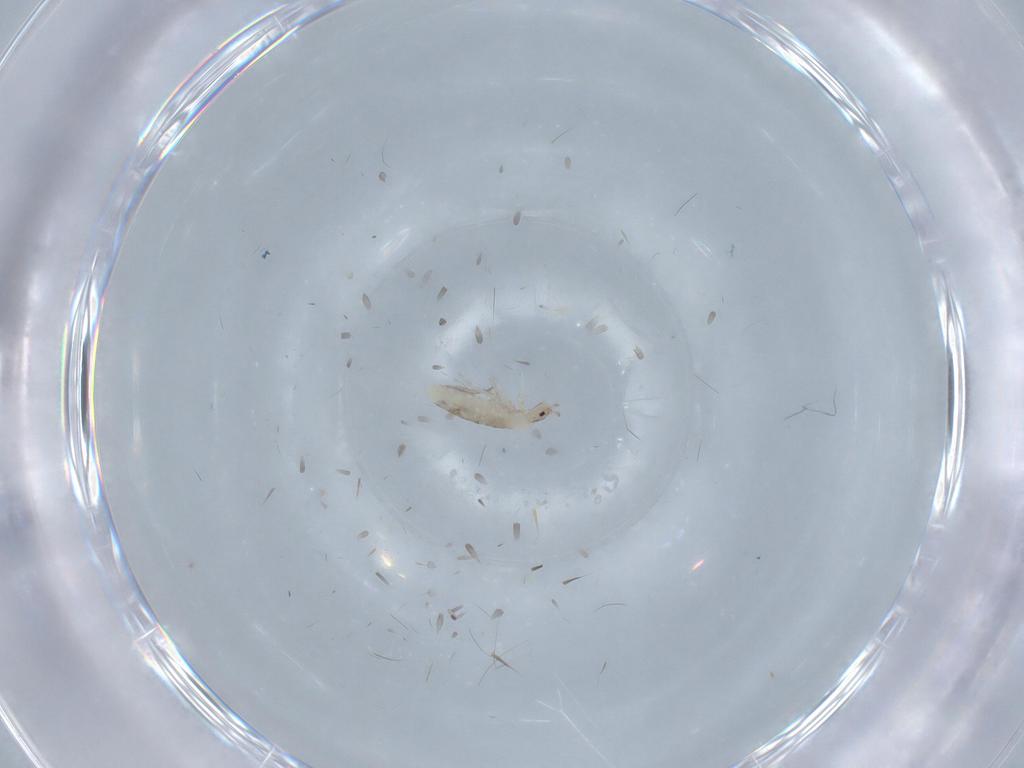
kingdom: Animalia
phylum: Arthropoda
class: Collembola
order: Entomobryomorpha
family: Entomobryidae
